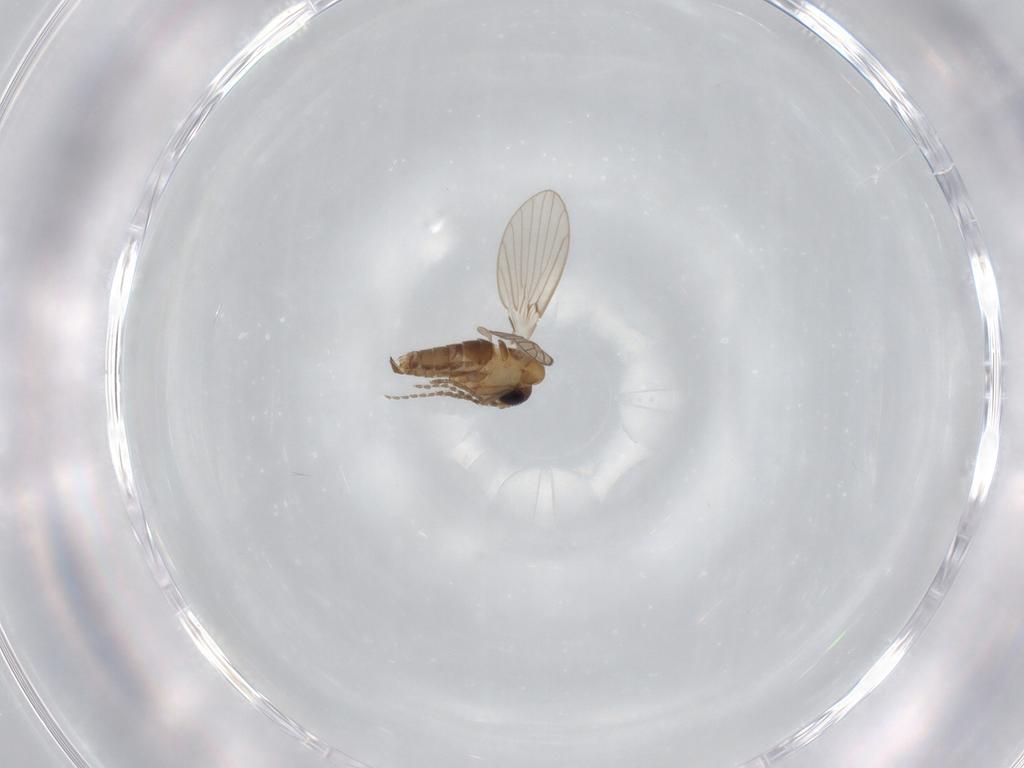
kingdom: Animalia
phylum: Arthropoda
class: Insecta
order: Diptera
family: Psychodidae
